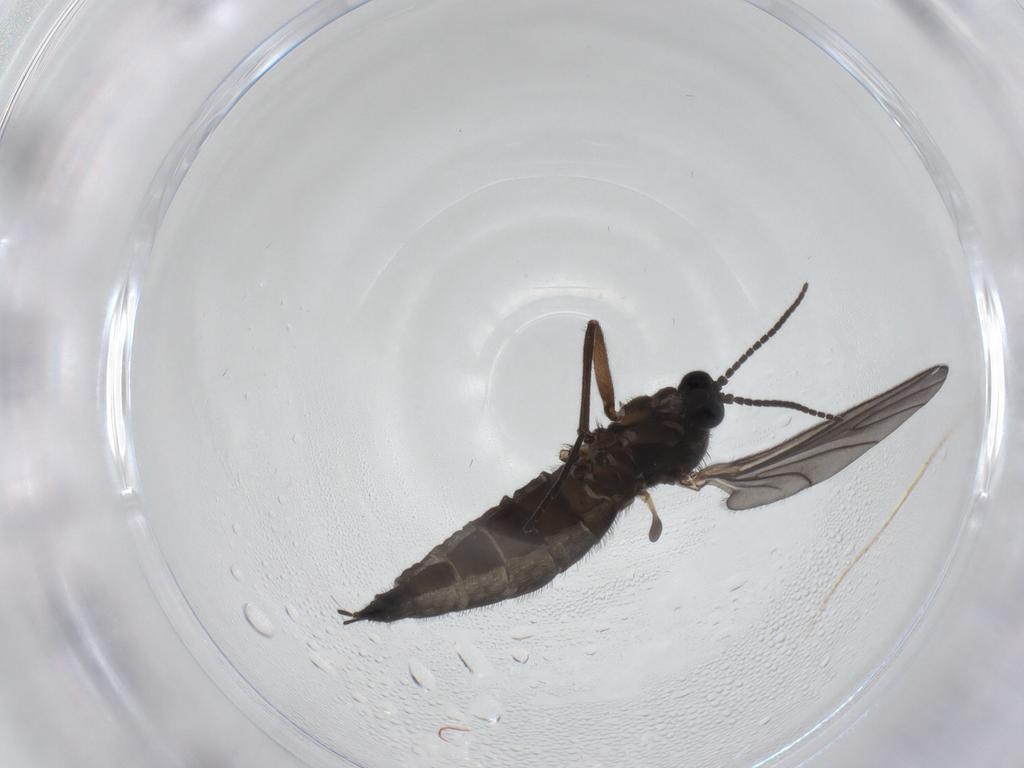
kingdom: Animalia
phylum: Arthropoda
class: Insecta
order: Diptera
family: Sciaridae
